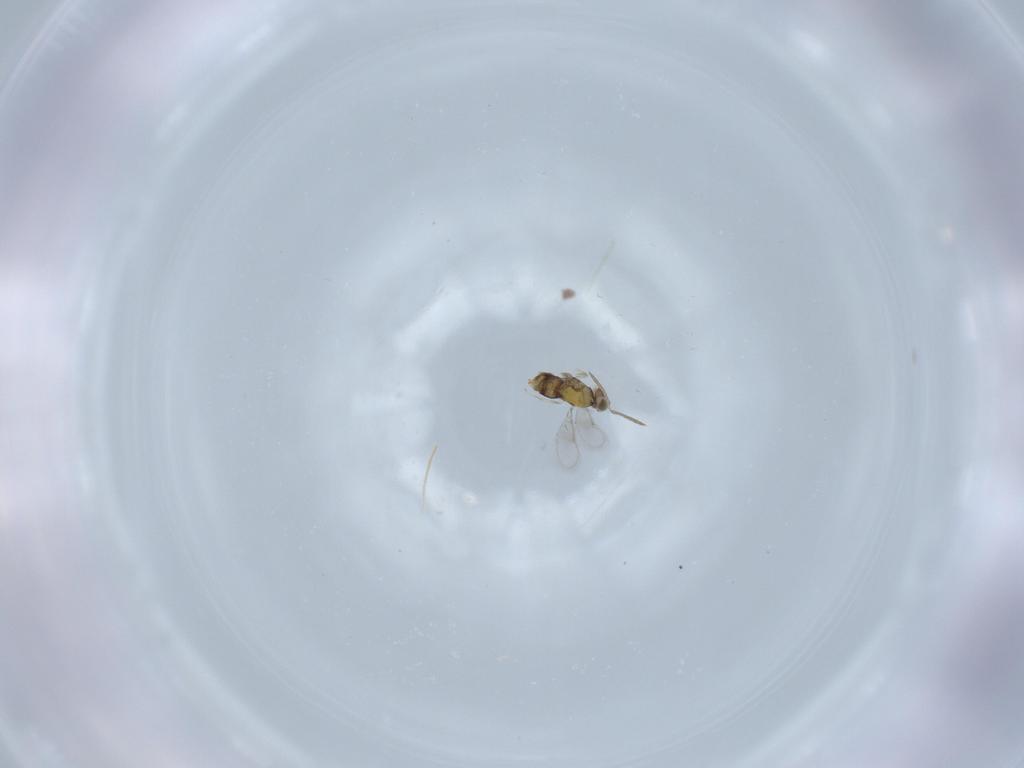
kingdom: Animalia
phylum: Arthropoda
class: Insecta
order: Hymenoptera
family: Aphelinidae
